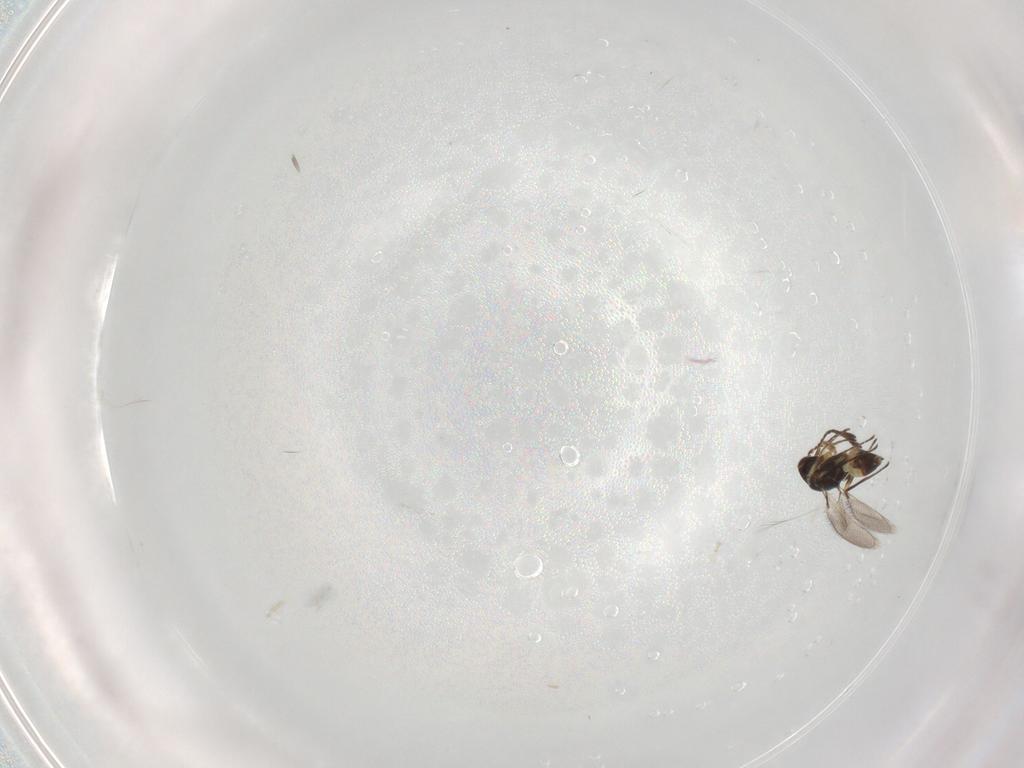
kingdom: Animalia
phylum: Arthropoda
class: Insecta
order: Hymenoptera
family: Mymaridae
